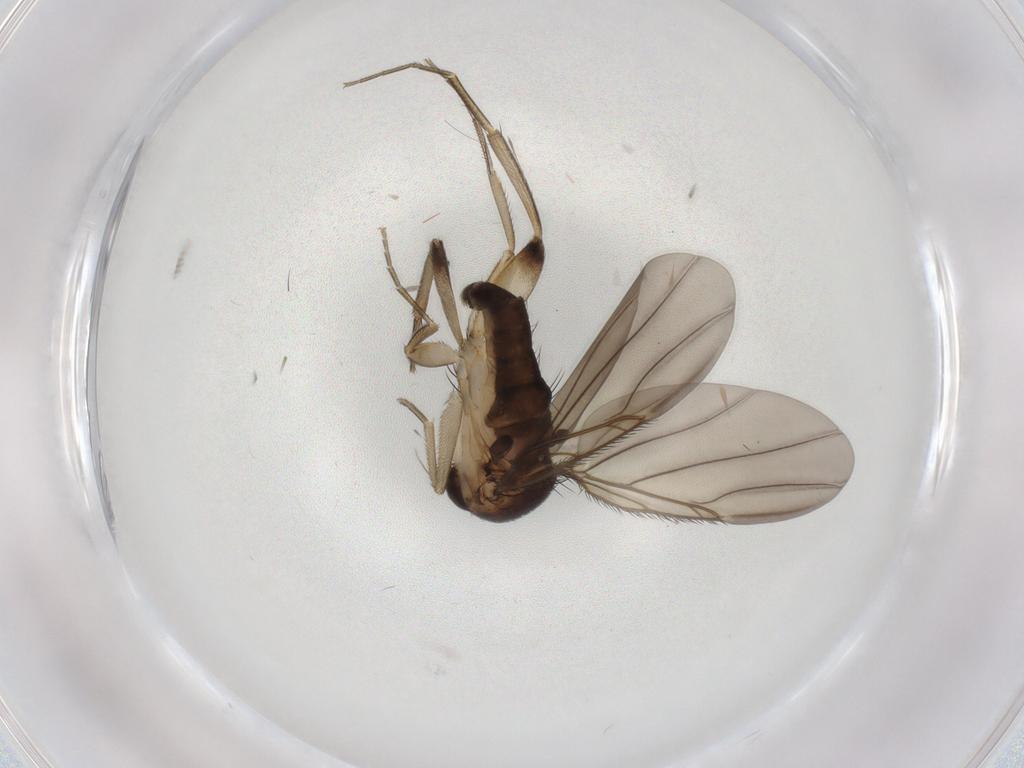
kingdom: Animalia
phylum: Arthropoda
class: Insecta
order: Diptera
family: Phoridae
